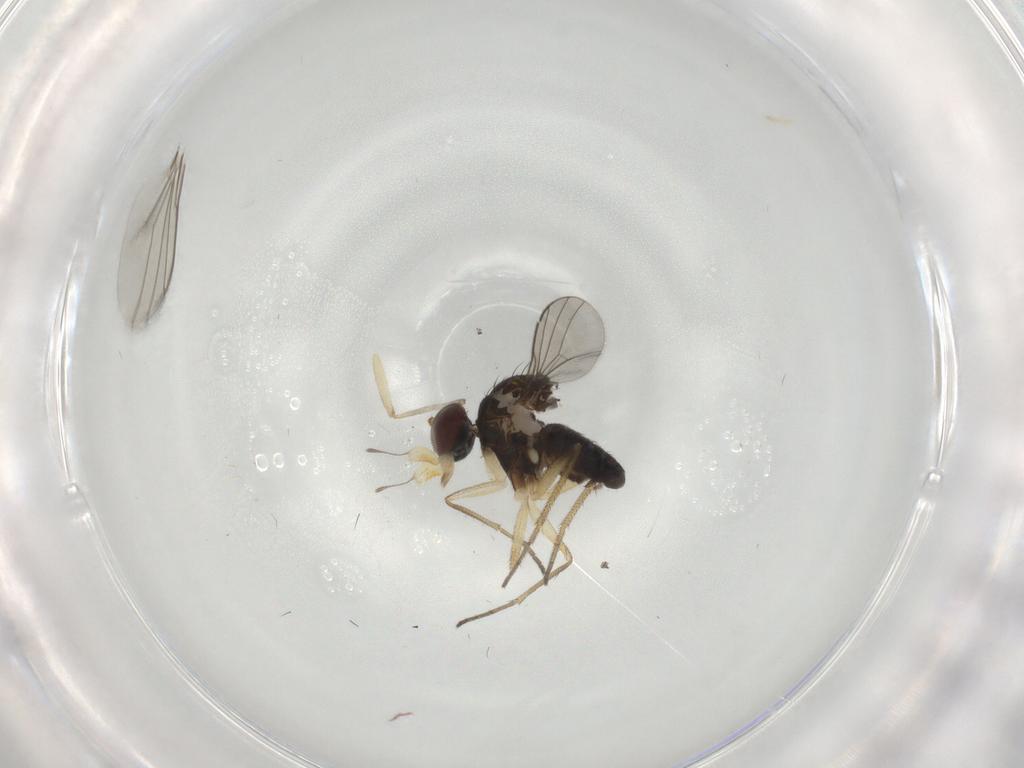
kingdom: Animalia
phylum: Arthropoda
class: Insecta
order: Diptera
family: Dolichopodidae
